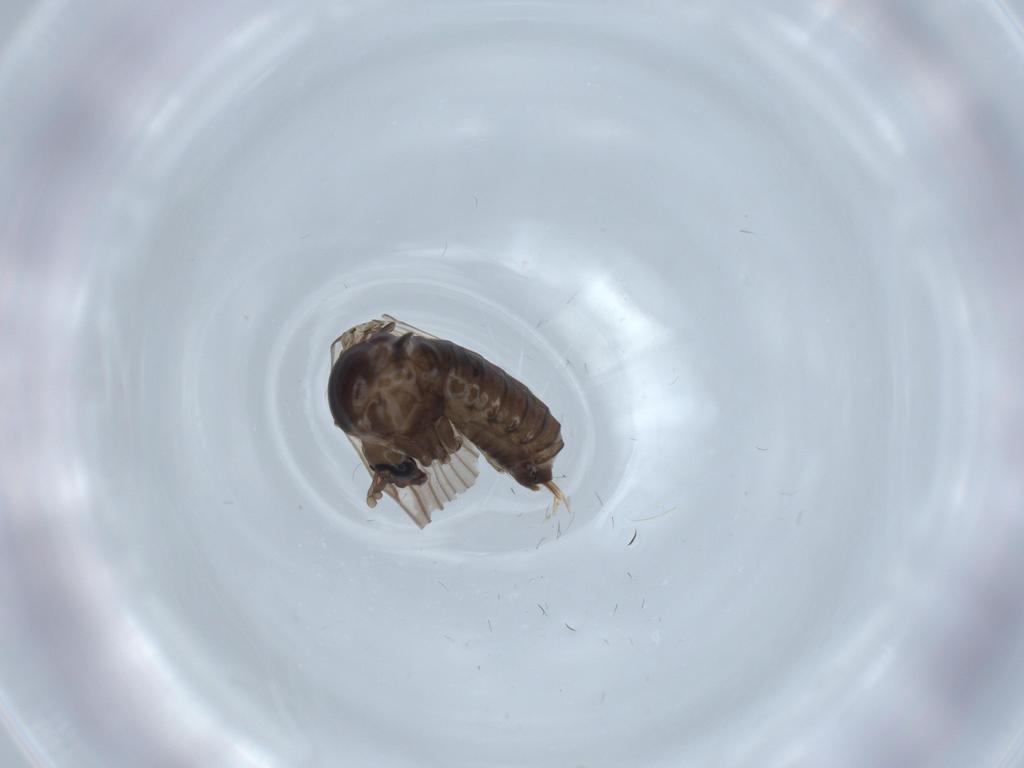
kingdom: Animalia
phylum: Arthropoda
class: Insecta
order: Diptera
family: Psychodidae
